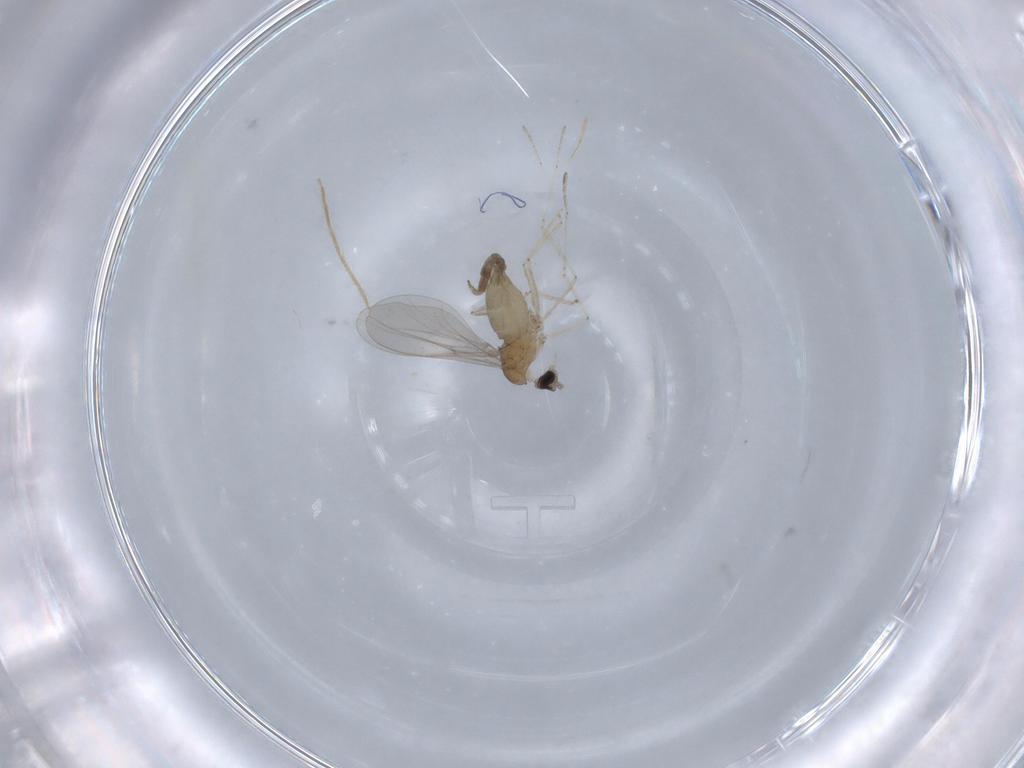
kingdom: Animalia
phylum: Arthropoda
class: Insecta
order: Diptera
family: Cecidomyiidae
